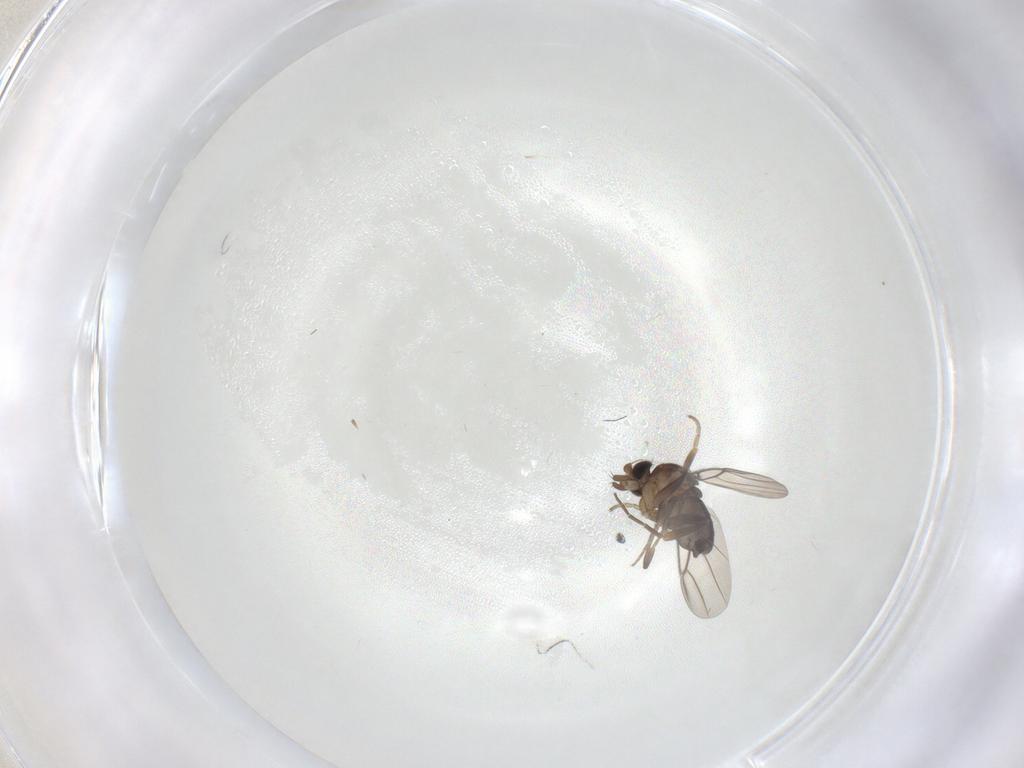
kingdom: Animalia
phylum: Arthropoda
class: Insecta
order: Diptera
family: Phoridae
